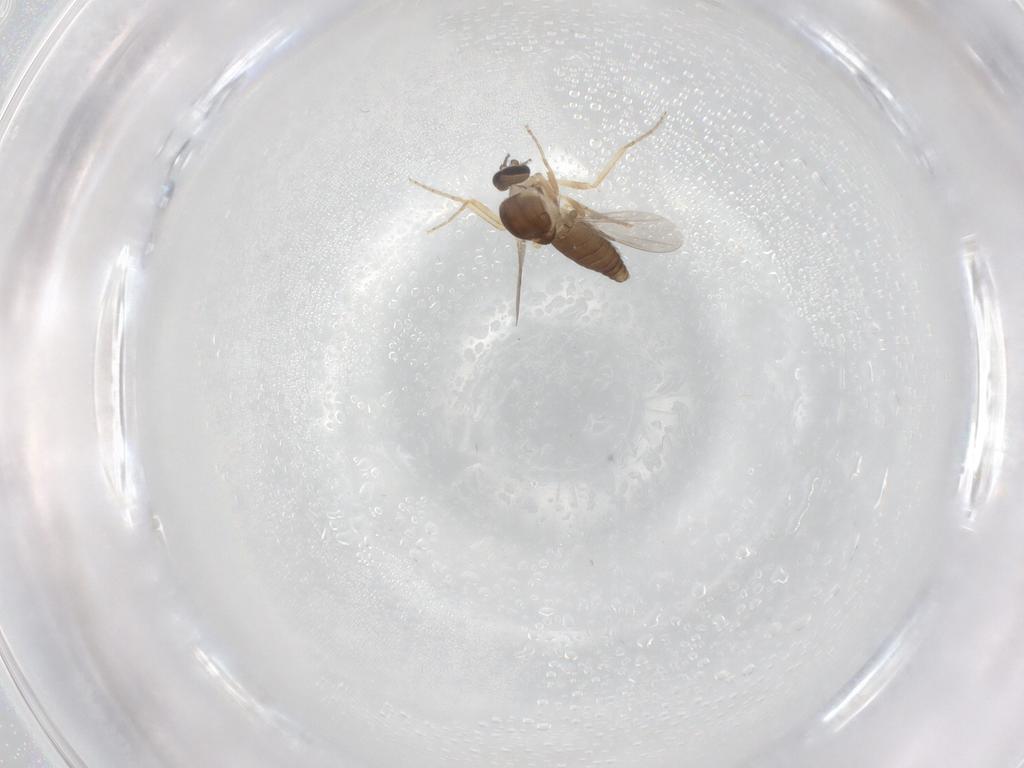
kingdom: Animalia
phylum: Arthropoda
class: Insecta
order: Diptera
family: Ceratopogonidae
